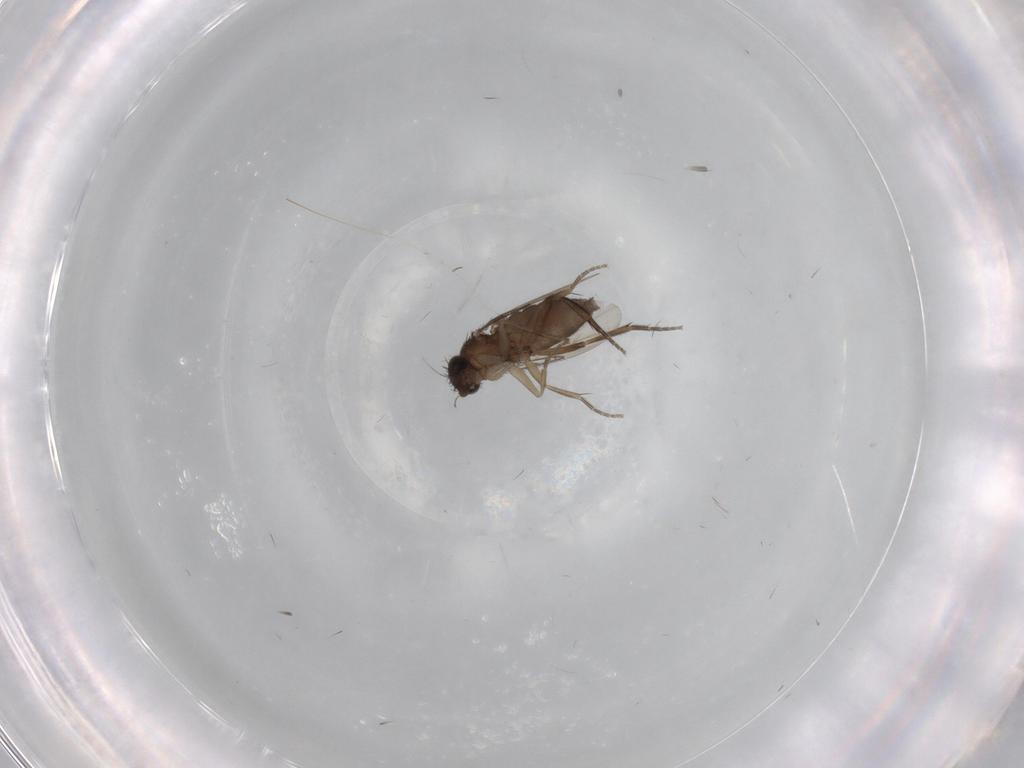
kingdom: Animalia
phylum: Arthropoda
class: Insecta
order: Diptera
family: Phoridae
